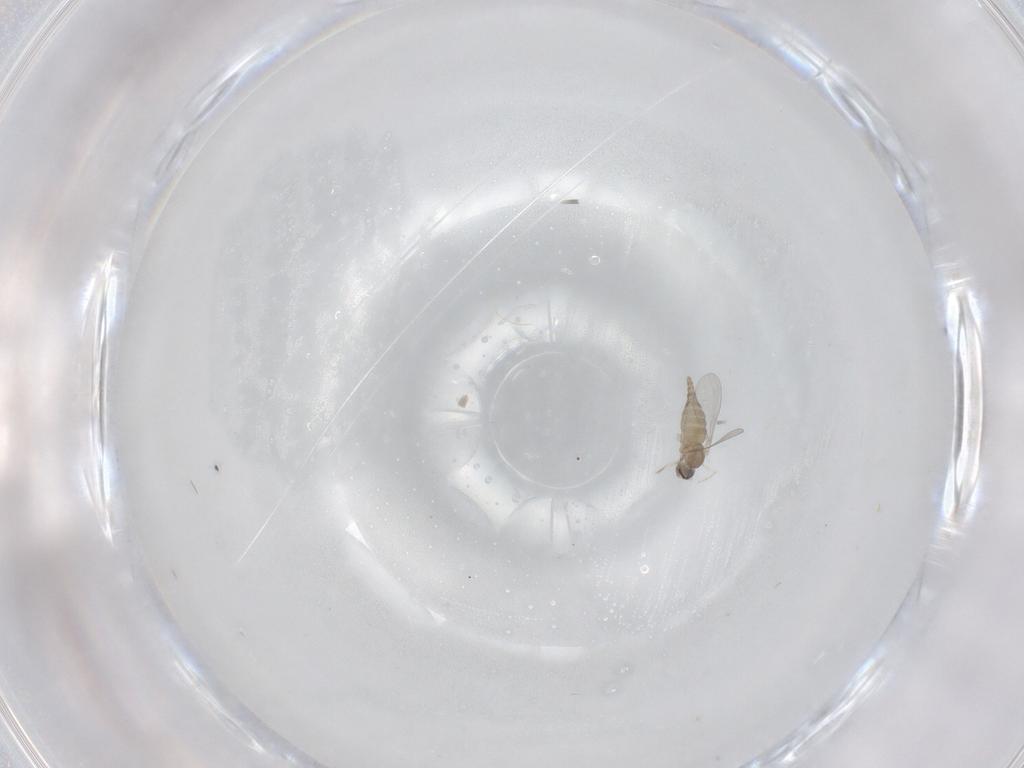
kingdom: Animalia
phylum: Arthropoda
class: Insecta
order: Diptera
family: Cecidomyiidae
